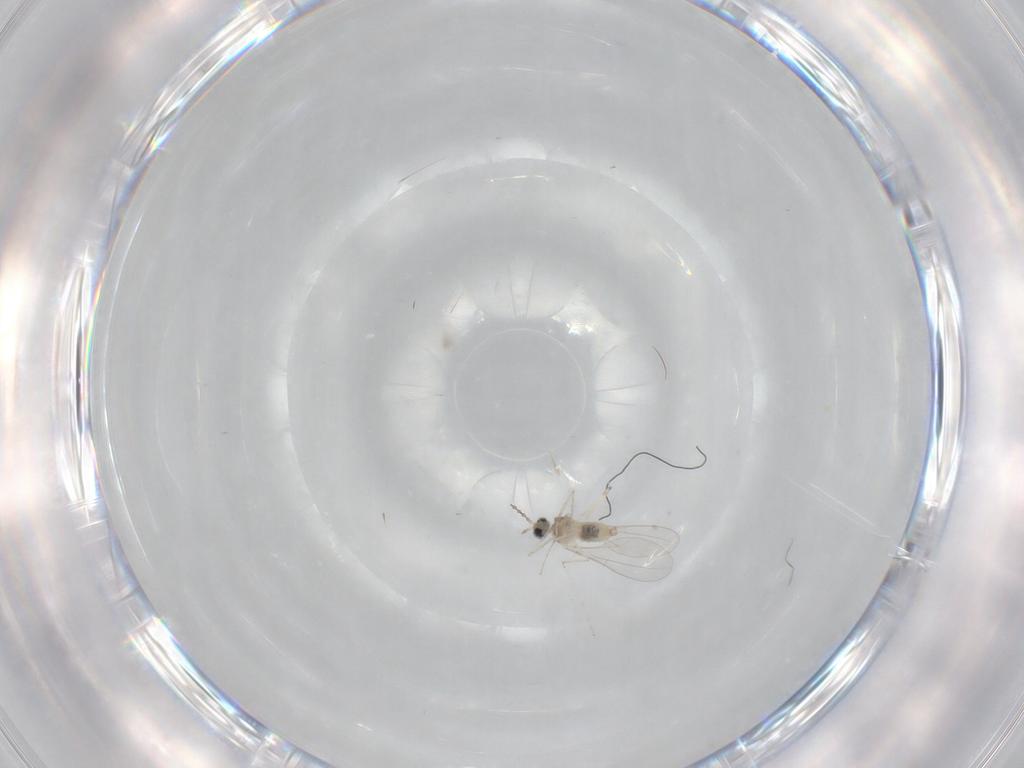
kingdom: Animalia
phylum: Arthropoda
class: Insecta
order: Diptera
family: Cecidomyiidae
